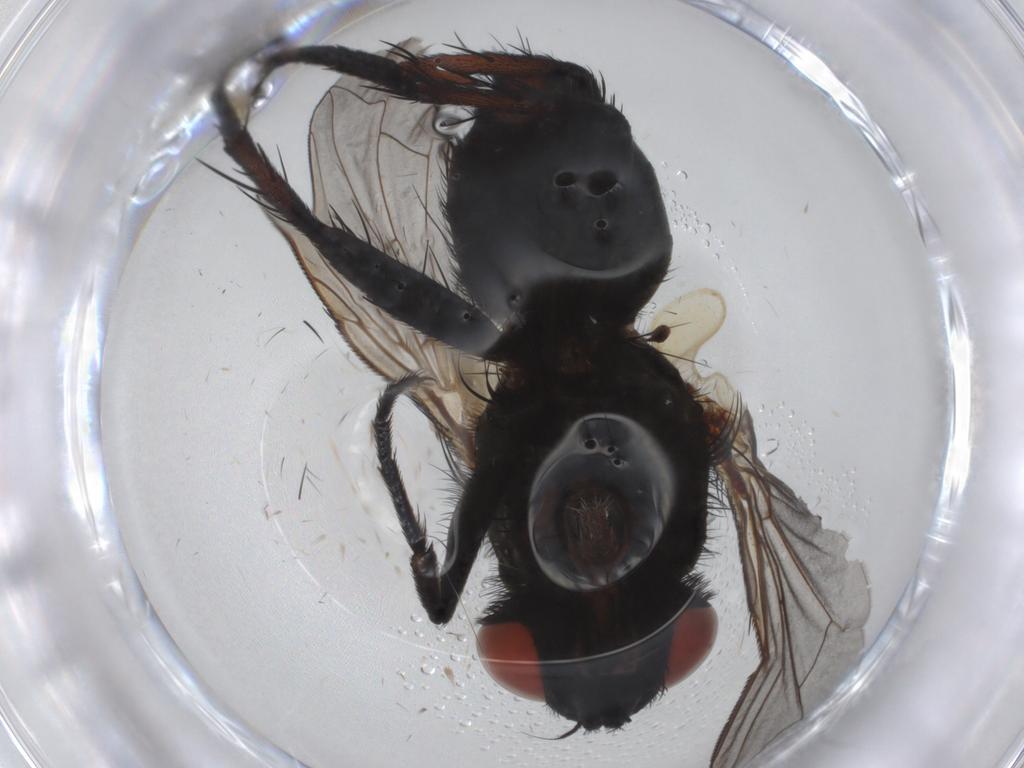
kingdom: Animalia
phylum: Arthropoda
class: Insecta
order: Diptera
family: Sarcophagidae
